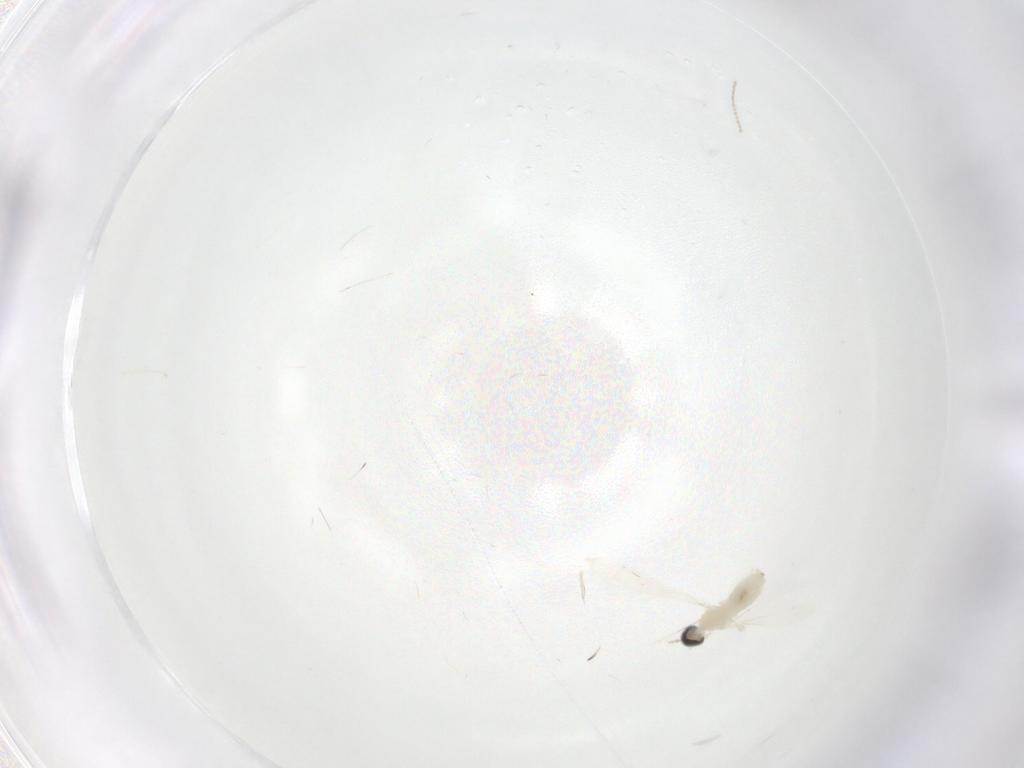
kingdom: Animalia
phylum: Arthropoda
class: Insecta
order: Diptera
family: Cecidomyiidae
